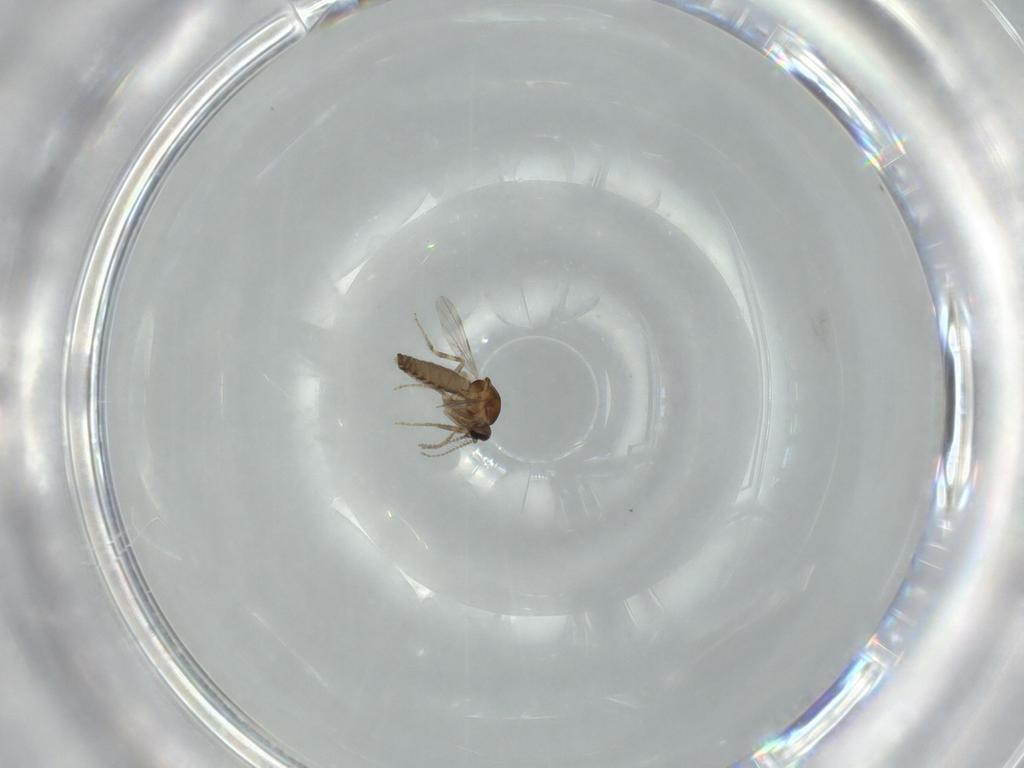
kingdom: Animalia
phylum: Arthropoda
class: Insecta
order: Diptera
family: Ceratopogonidae
